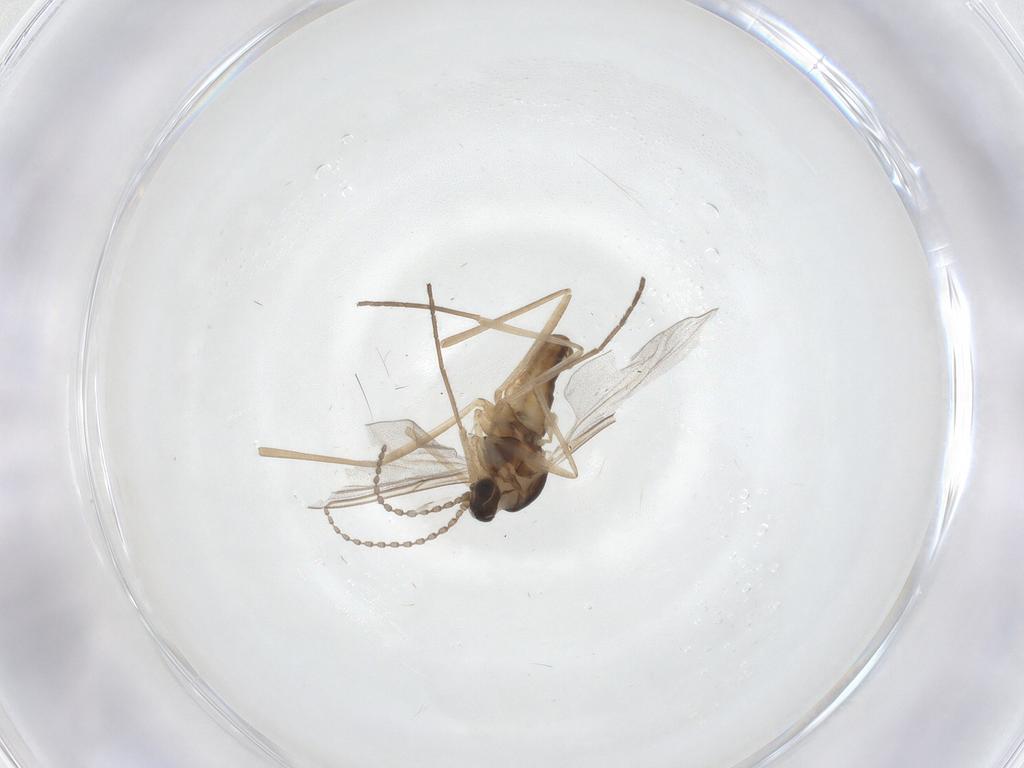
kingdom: Animalia
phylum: Arthropoda
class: Insecta
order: Diptera
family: Cecidomyiidae
